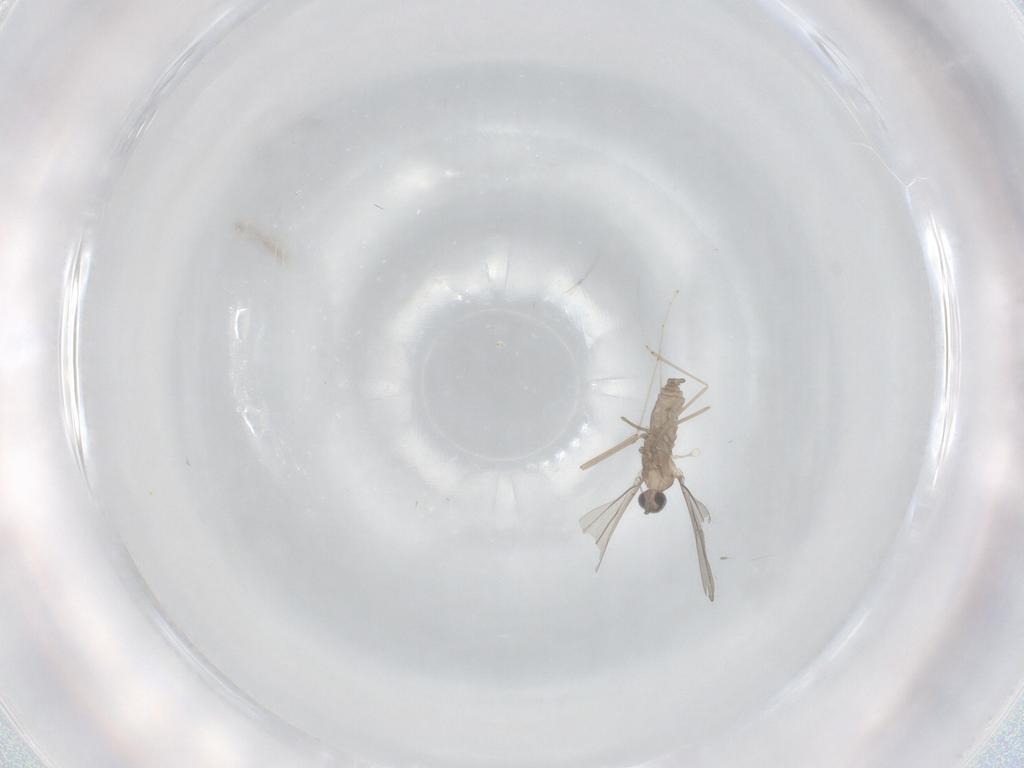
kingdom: Animalia
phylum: Arthropoda
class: Insecta
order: Diptera
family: Cecidomyiidae
